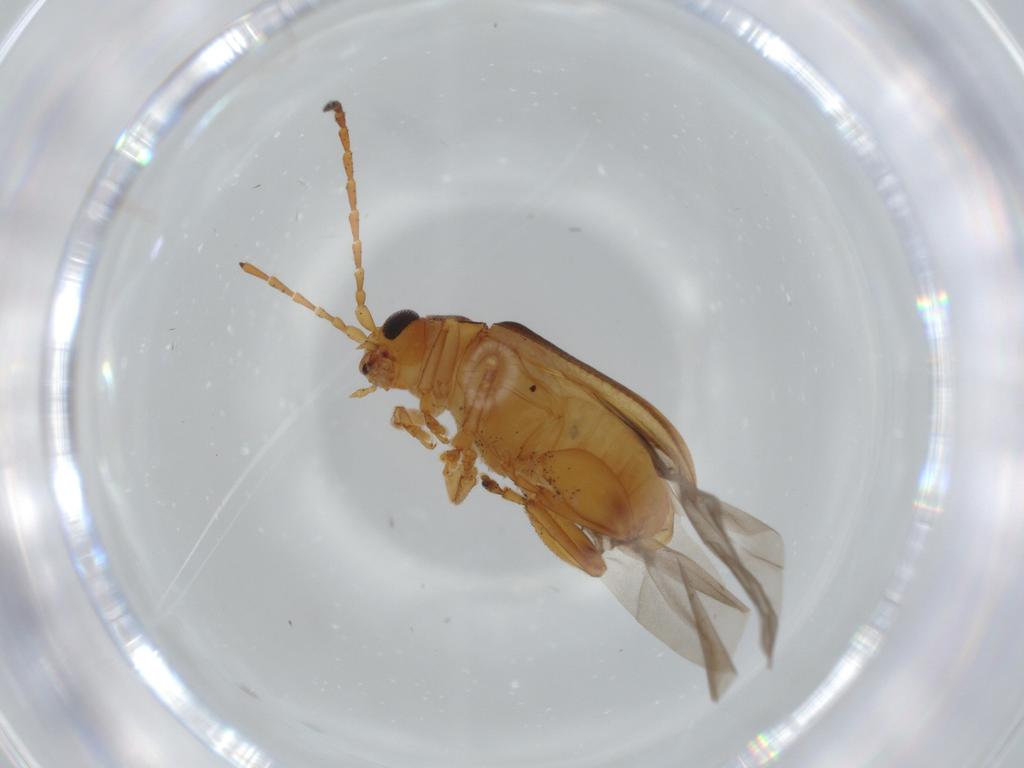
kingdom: Animalia
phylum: Arthropoda
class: Insecta
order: Coleoptera
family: Chrysomelidae
